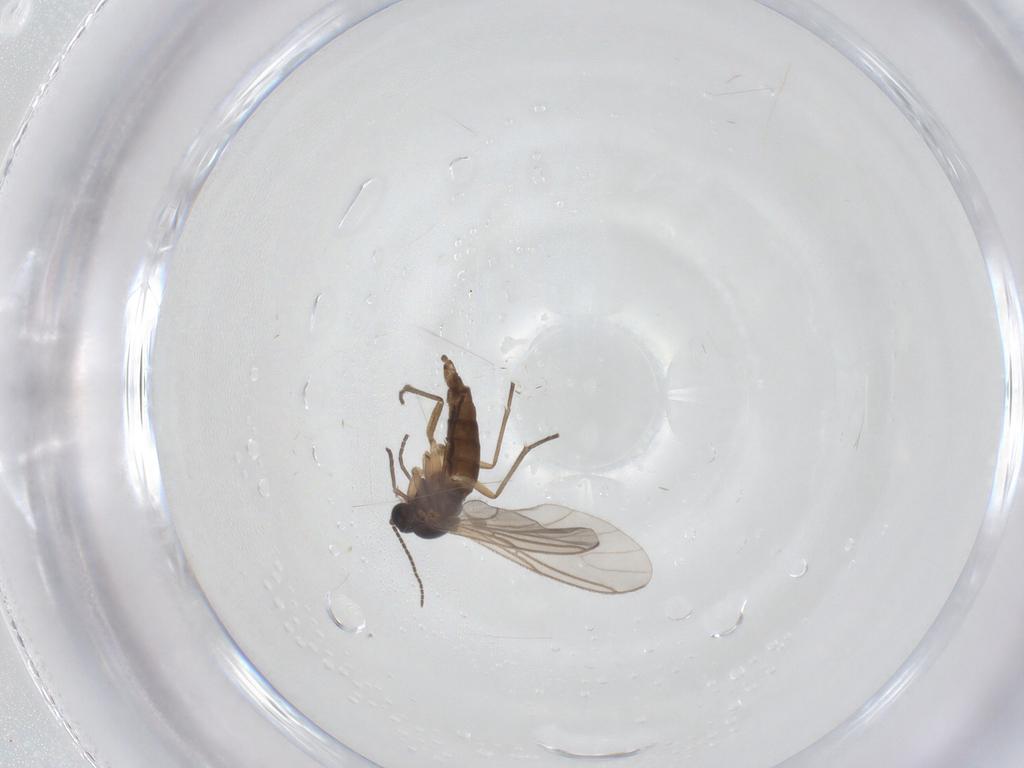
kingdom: Animalia
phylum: Arthropoda
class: Insecta
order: Diptera
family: Sciaridae
